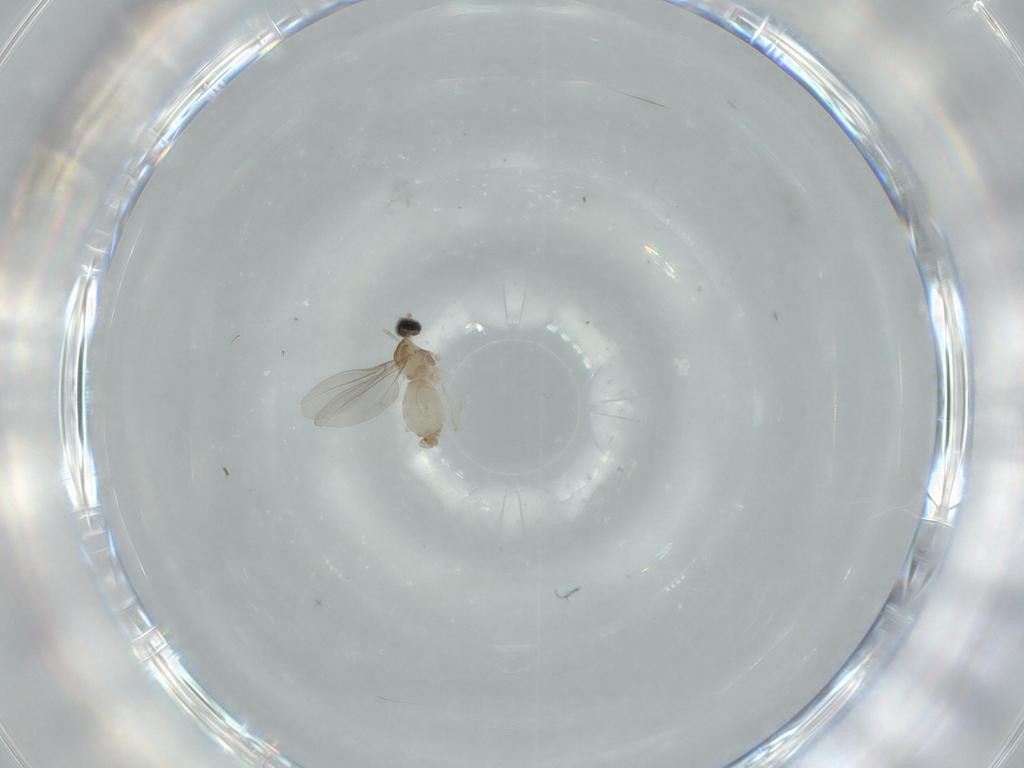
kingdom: Animalia
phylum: Arthropoda
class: Insecta
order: Diptera
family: Cecidomyiidae
